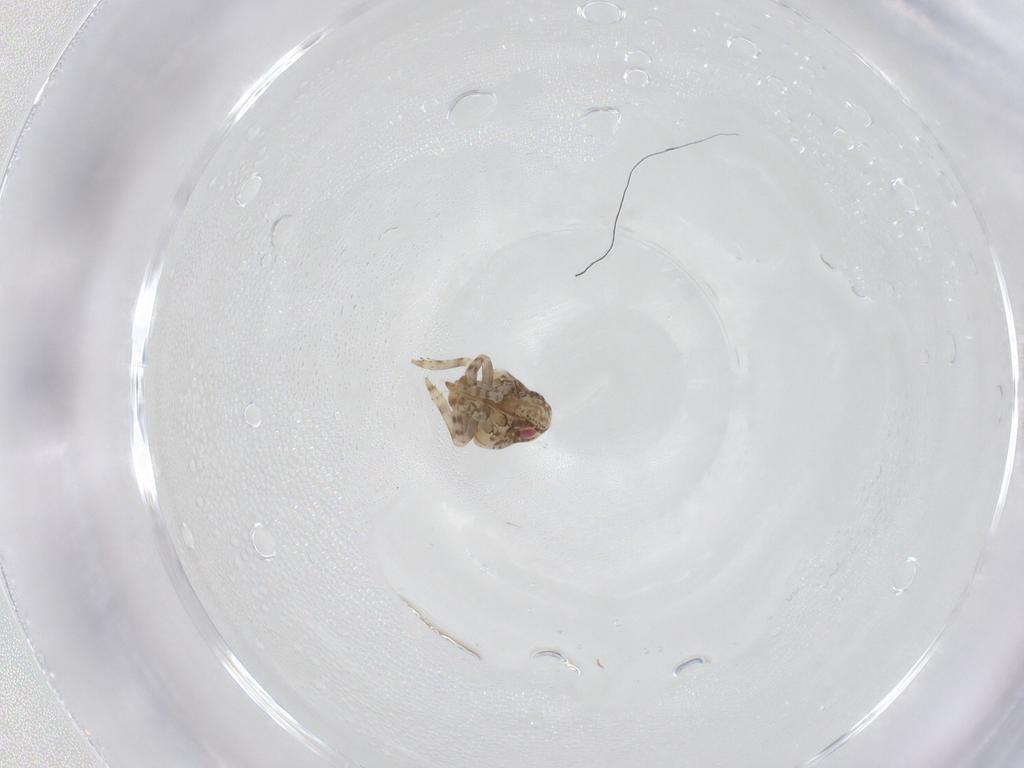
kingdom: Animalia
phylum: Arthropoda
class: Insecta
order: Hemiptera
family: Acanaloniidae
